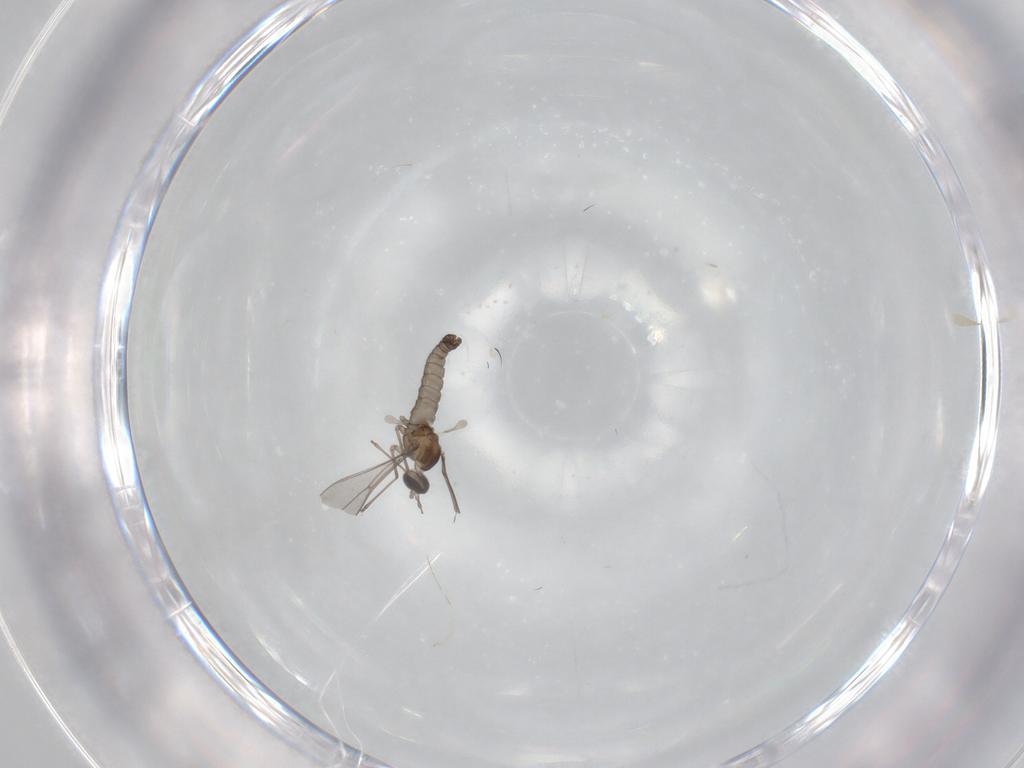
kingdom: Animalia
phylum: Arthropoda
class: Insecta
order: Diptera
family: Cecidomyiidae
